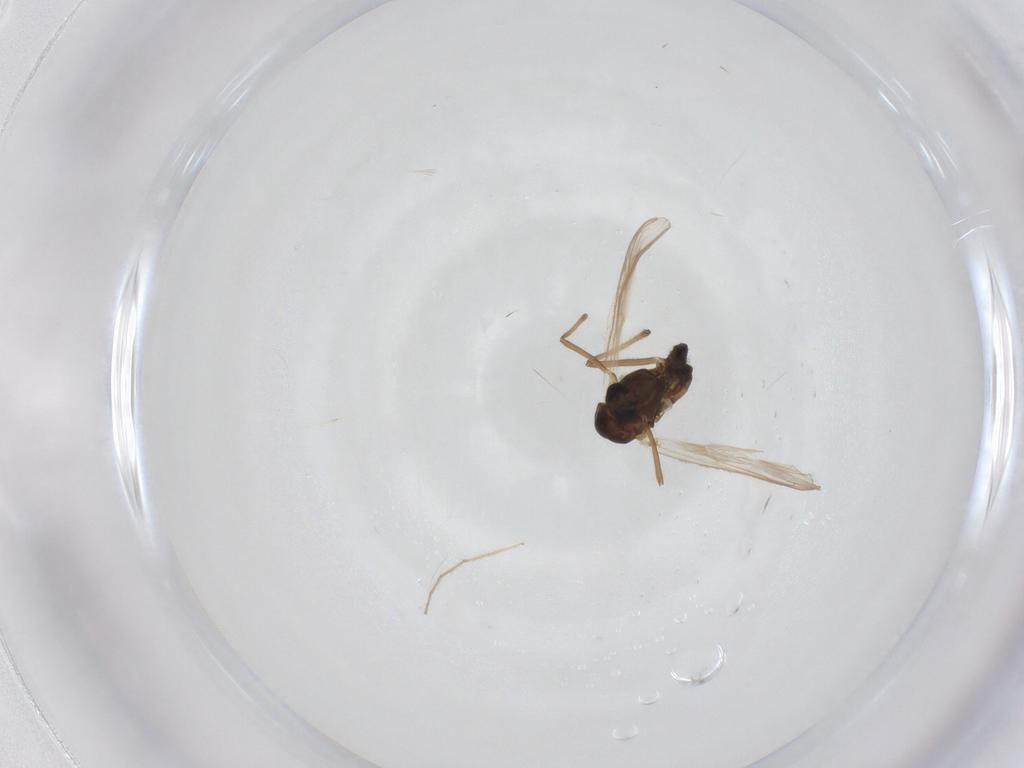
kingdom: Animalia
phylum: Arthropoda
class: Insecta
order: Diptera
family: Chironomidae
